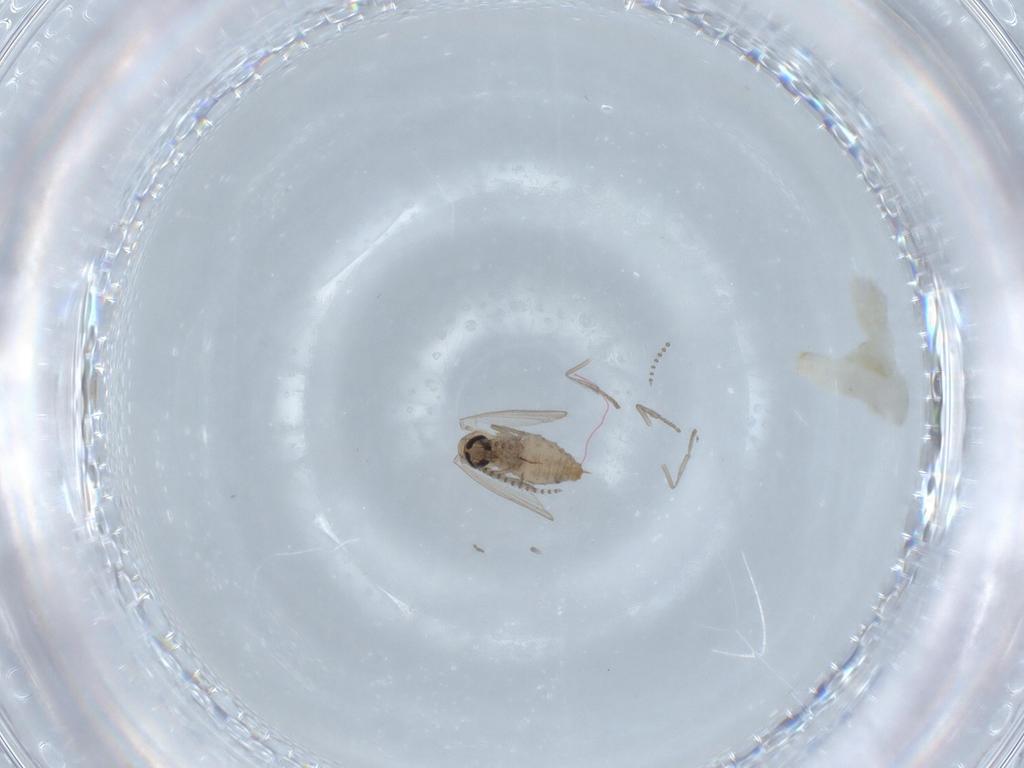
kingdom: Animalia
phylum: Arthropoda
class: Insecta
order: Diptera
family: Psychodidae
